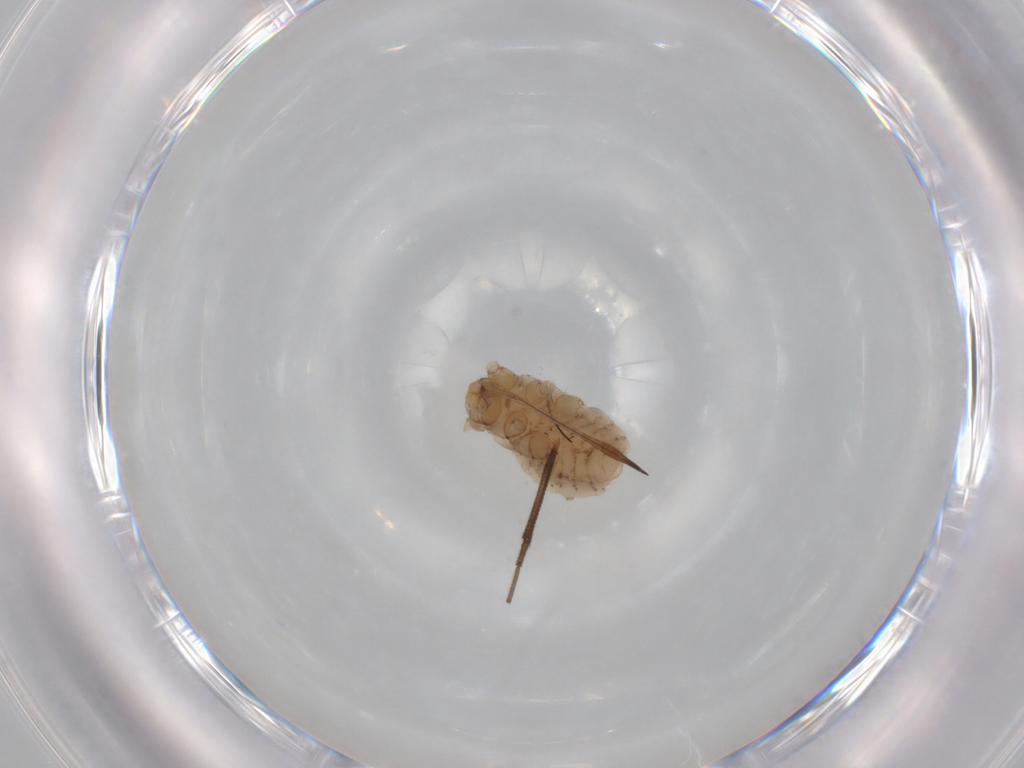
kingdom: Animalia
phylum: Arthropoda
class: Insecta
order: Hemiptera
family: Aphididae
